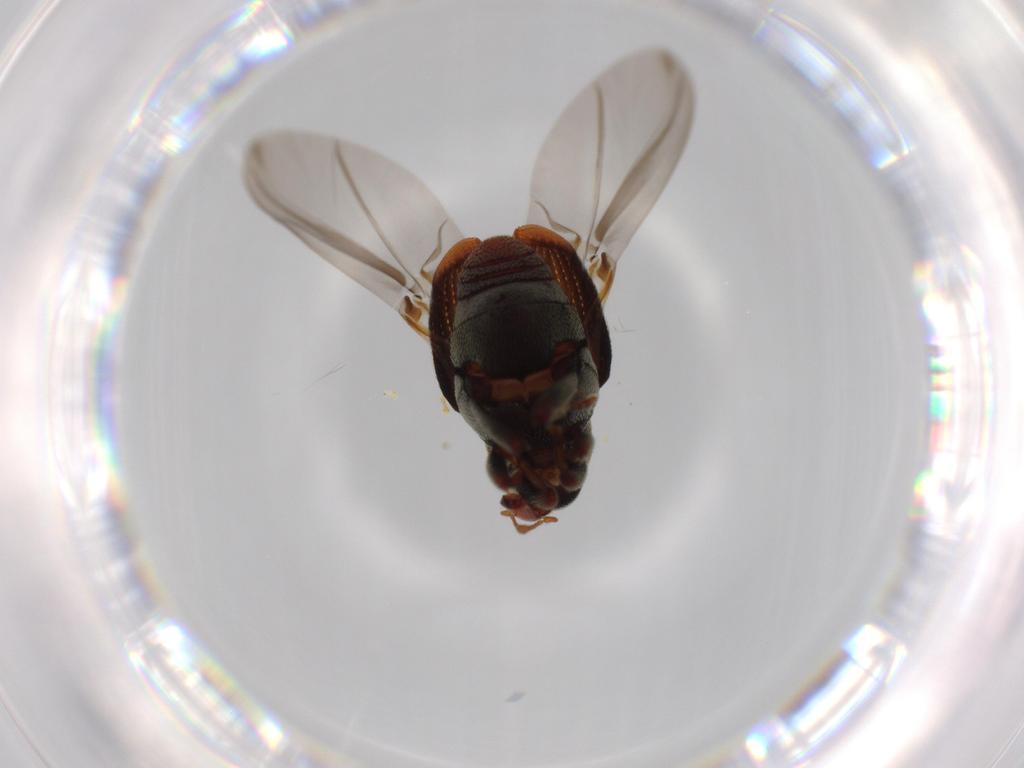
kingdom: Animalia
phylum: Arthropoda
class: Insecta
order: Coleoptera
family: Curculionidae
